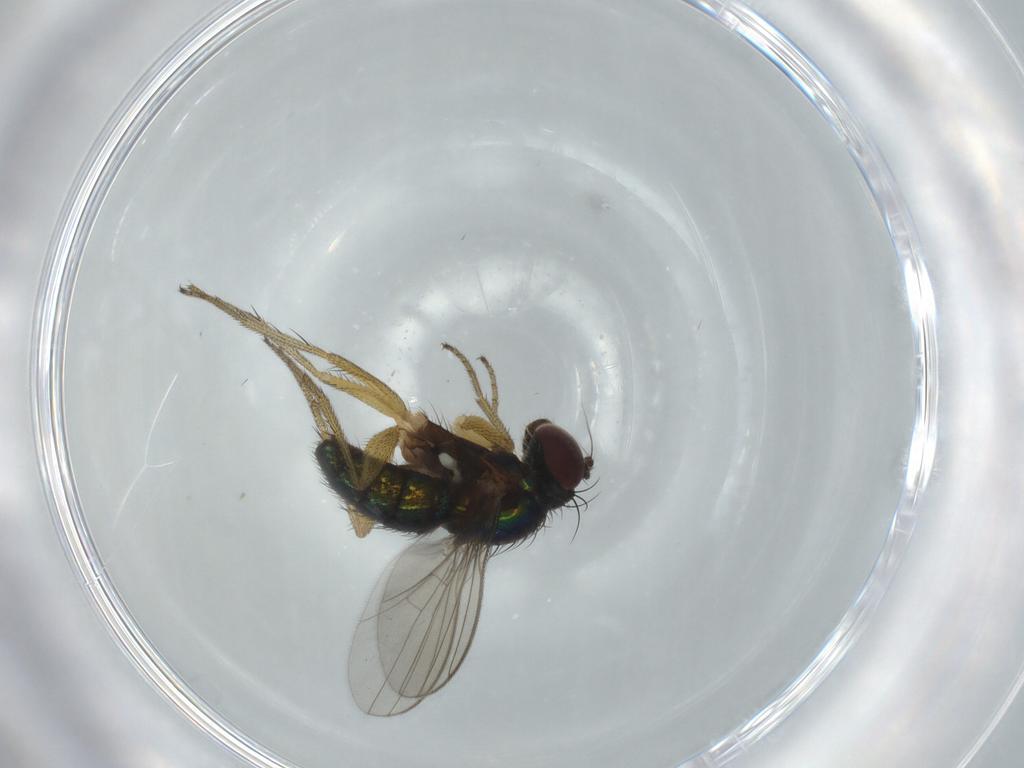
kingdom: Animalia
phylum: Arthropoda
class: Insecta
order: Diptera
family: Dolichopodidae
